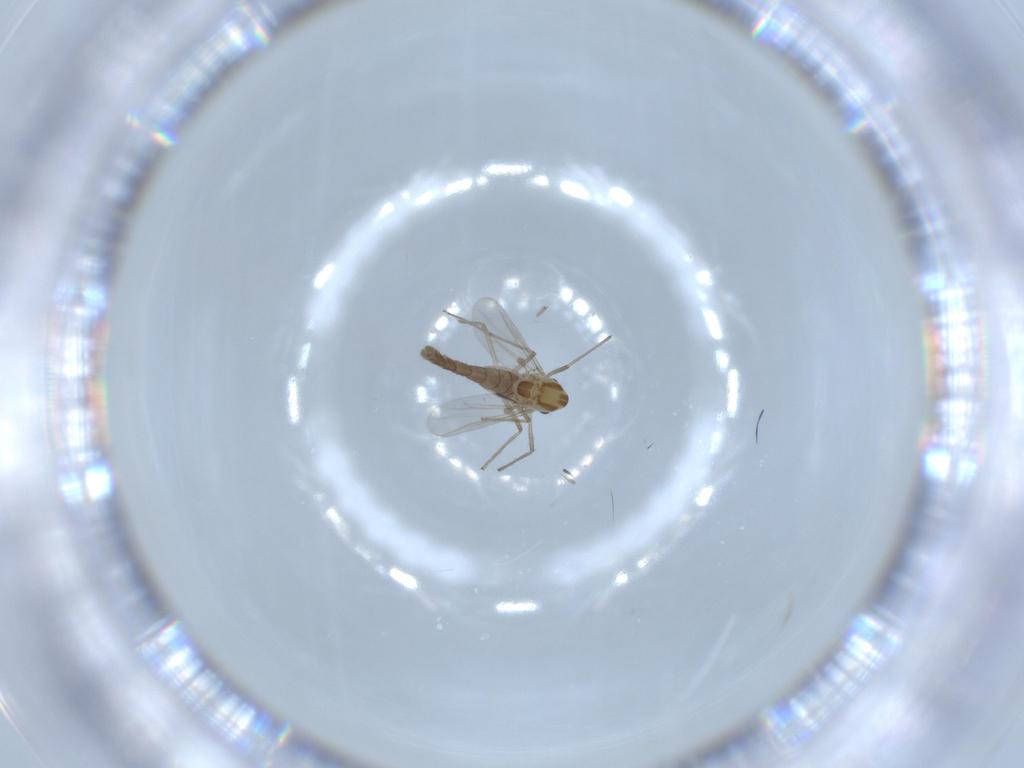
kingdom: Animalia
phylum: Arthropoda
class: Insecta
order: Diptera
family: Chironomidae
